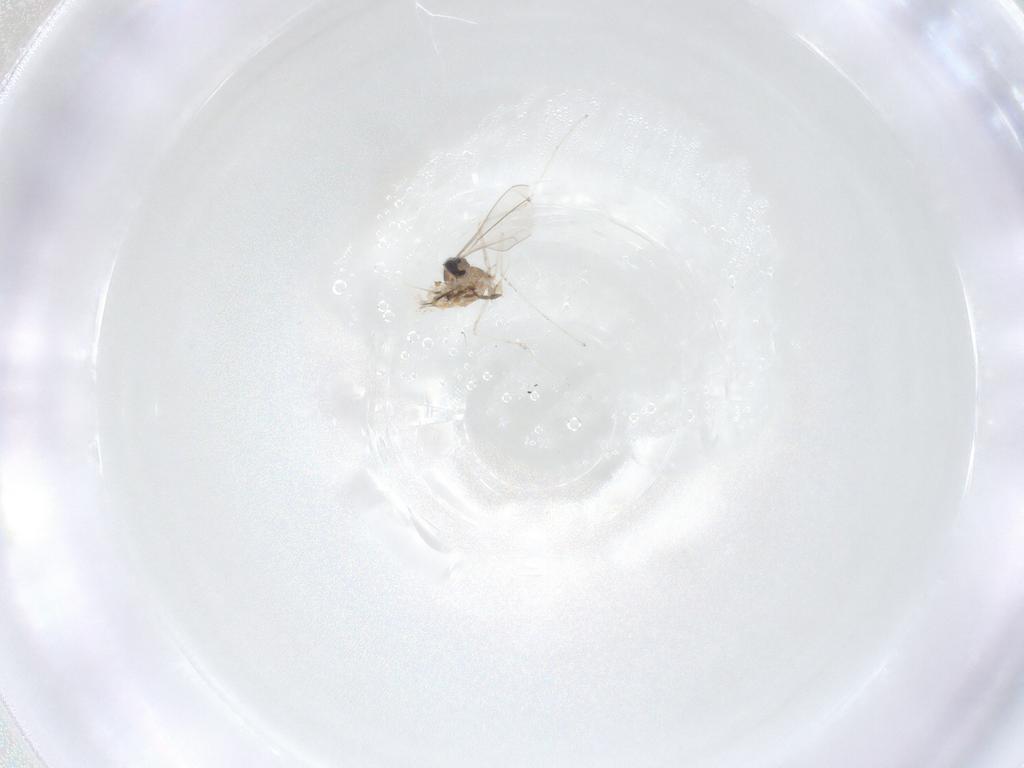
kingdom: Animalia
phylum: Arthropoda
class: Insecta
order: Diptera
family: Cecidomyiidae
